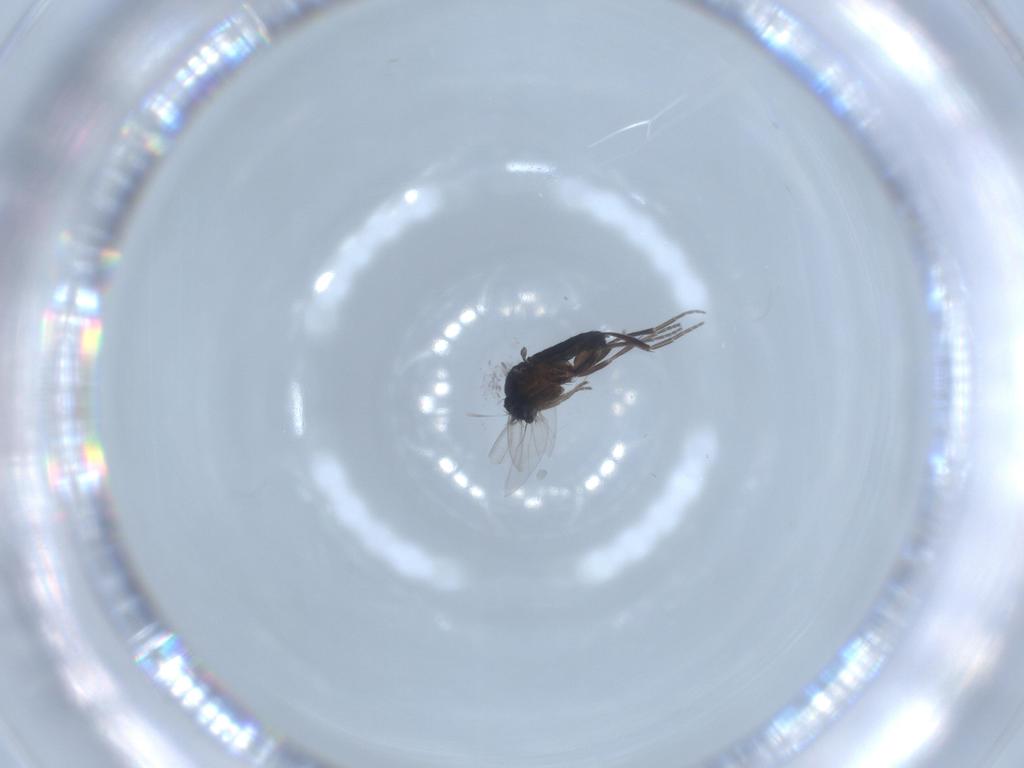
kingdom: Animalia
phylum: Arthropoda
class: Insecta
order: Diptera
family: Phoridae
